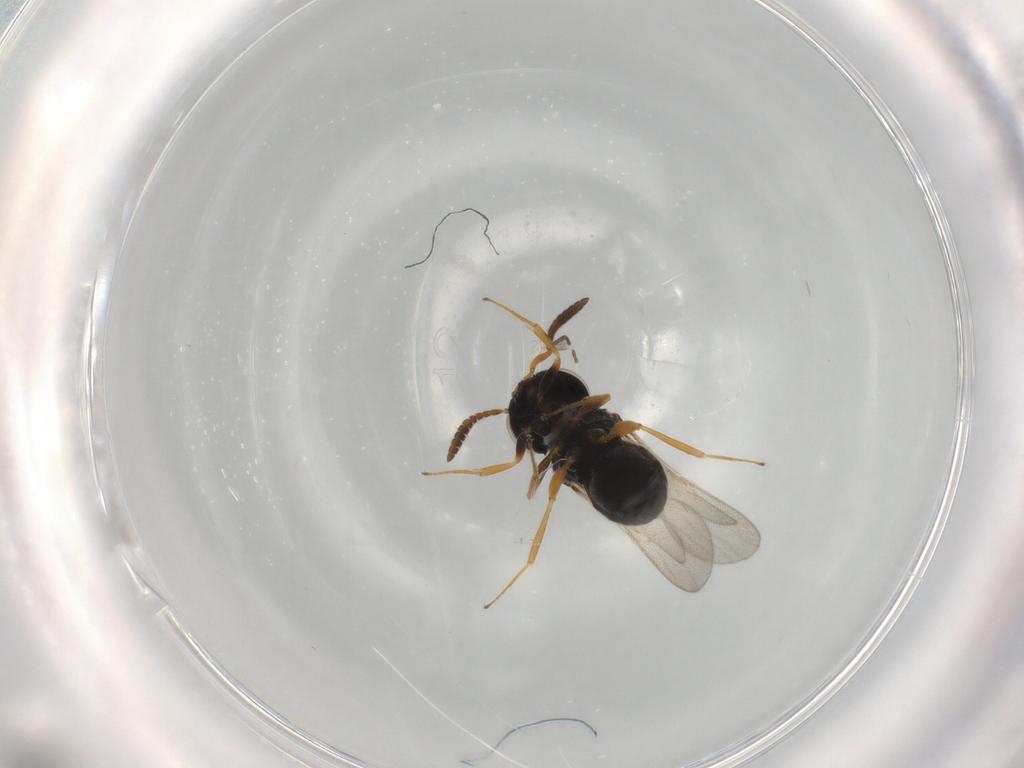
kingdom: Animalia
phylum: Arthropoda
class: Insecta
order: Hymenoptera
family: Scelionidae
